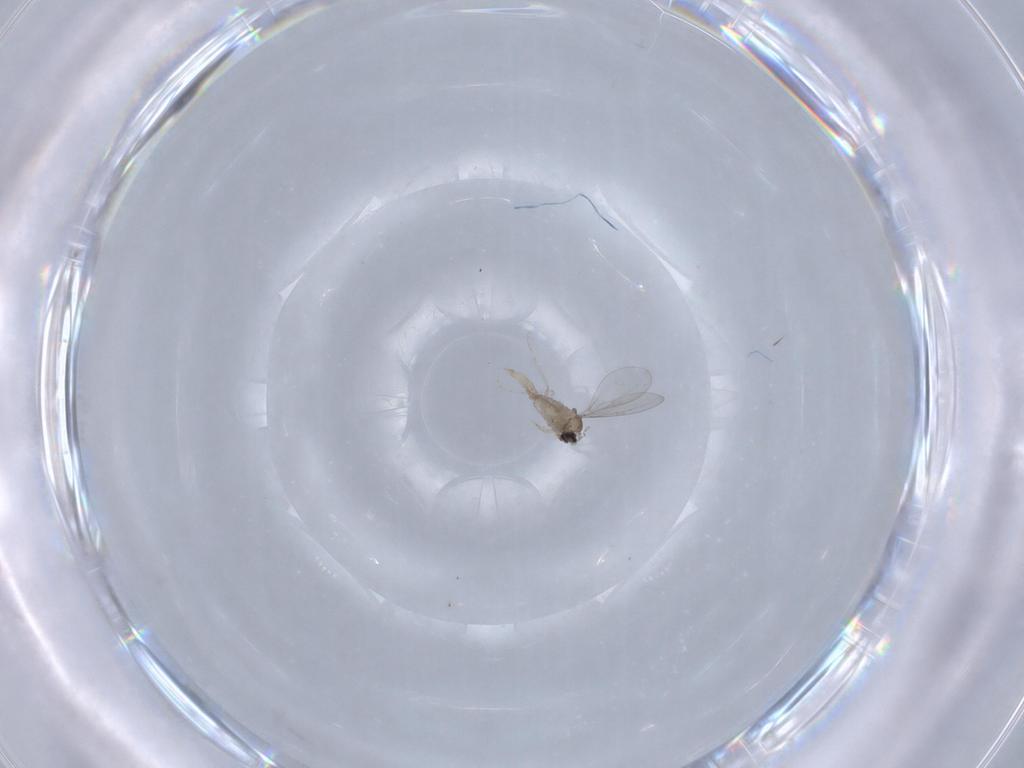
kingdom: Animalia
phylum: Arthropoda
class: Insecta
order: Diptera
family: Cecidomyiidae
